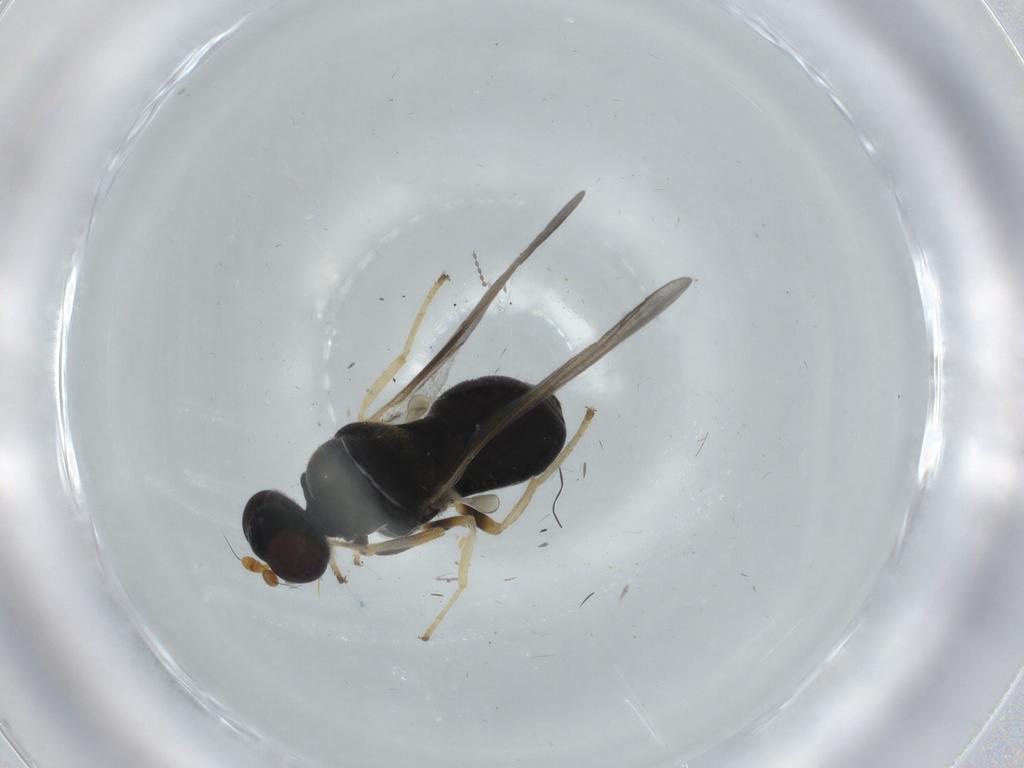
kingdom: Animalia
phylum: Arthropoda
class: Insecta
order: Diptera
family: Stratiomyidae
